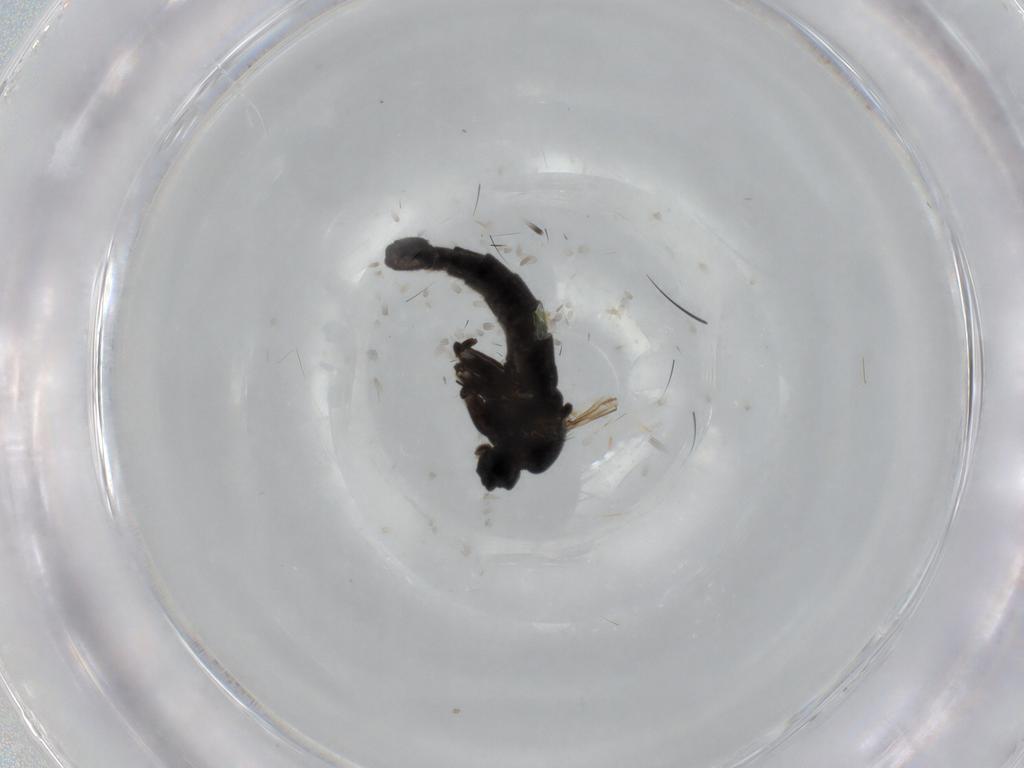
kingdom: Animalia
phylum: Arthropoda
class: Insecta
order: Diptera
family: Sciaridae
